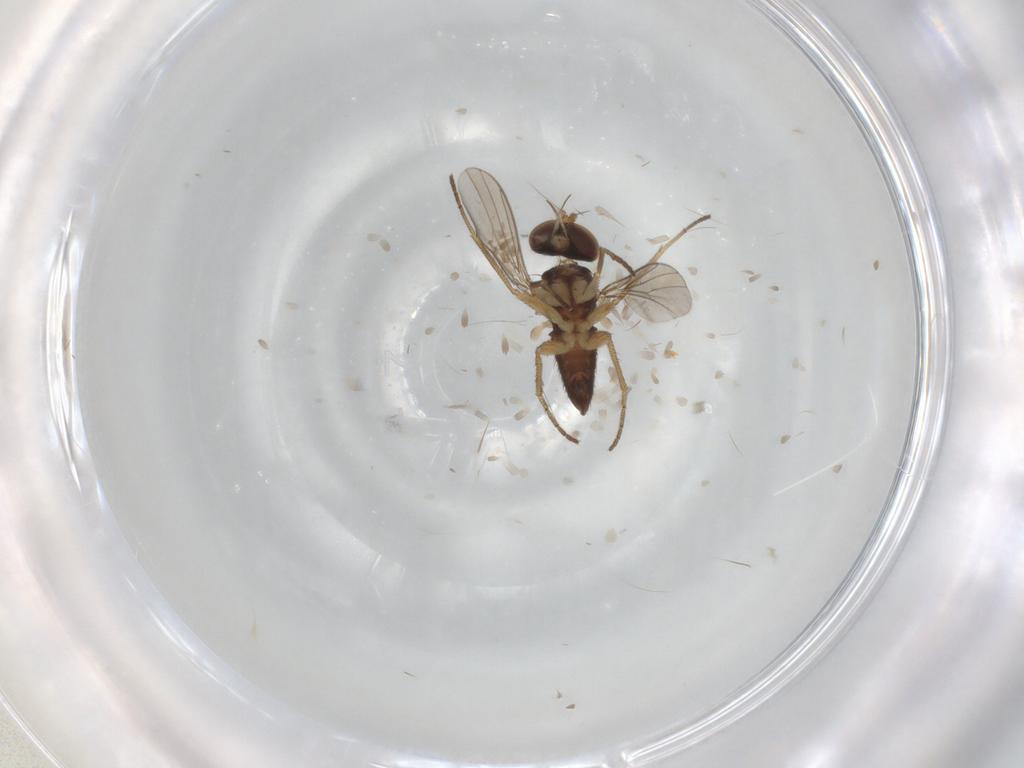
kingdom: Animalia
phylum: Arthropoda
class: Insecta
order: Diptera
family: Dolichopodidae
